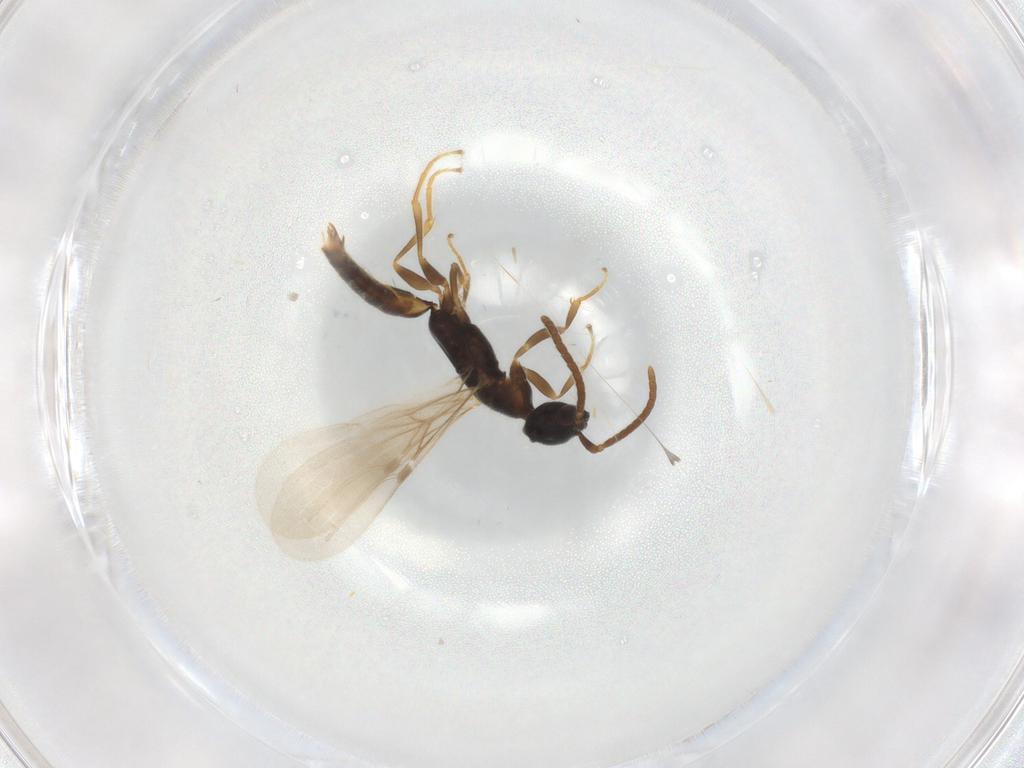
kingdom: Animalia
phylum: Arthropoda
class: Insecta
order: Hymenoptera
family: Bethylidae
